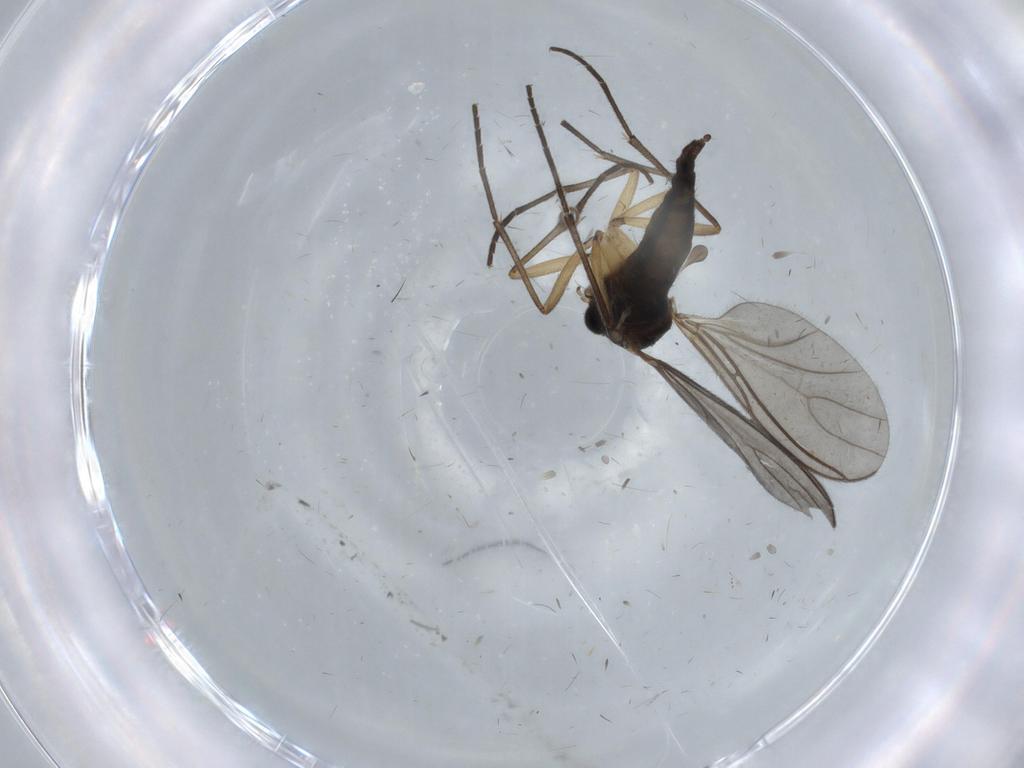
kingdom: Animalia
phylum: Arthropoda
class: Insecta
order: Diptera
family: Sciaridae
